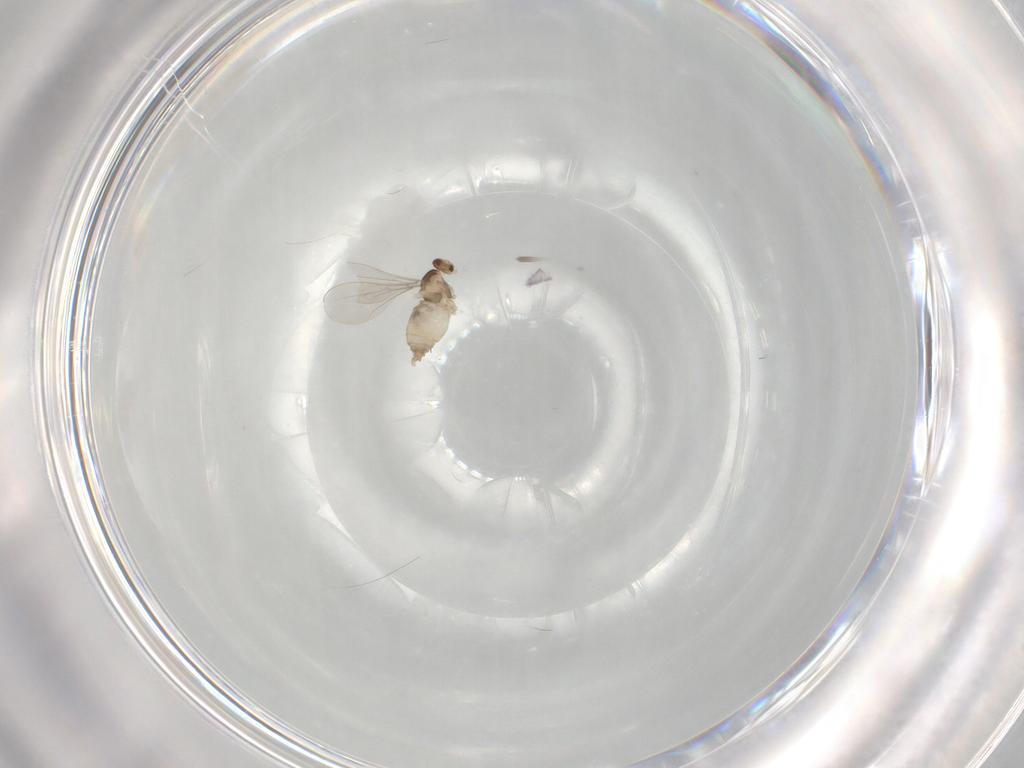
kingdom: Animalia
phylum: Arthropoda
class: Insecta
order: Diptera
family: Cecidomyiidae
